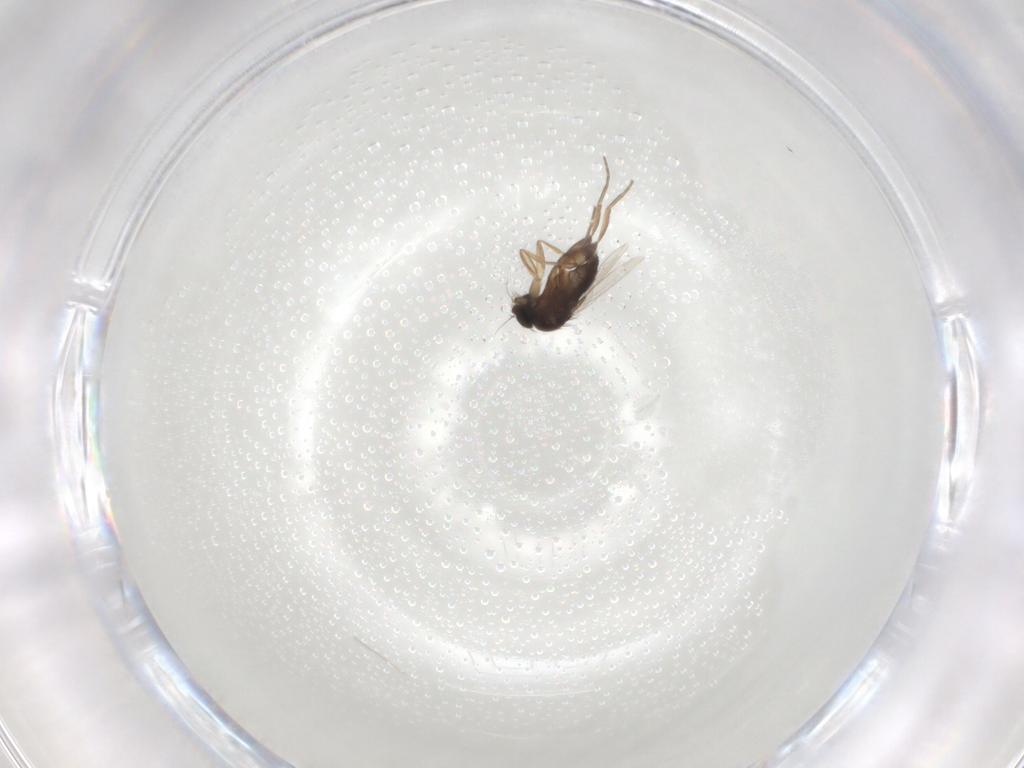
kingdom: Animalia
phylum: Arthropoda
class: Insecta
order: Diptera
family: Phoridae
